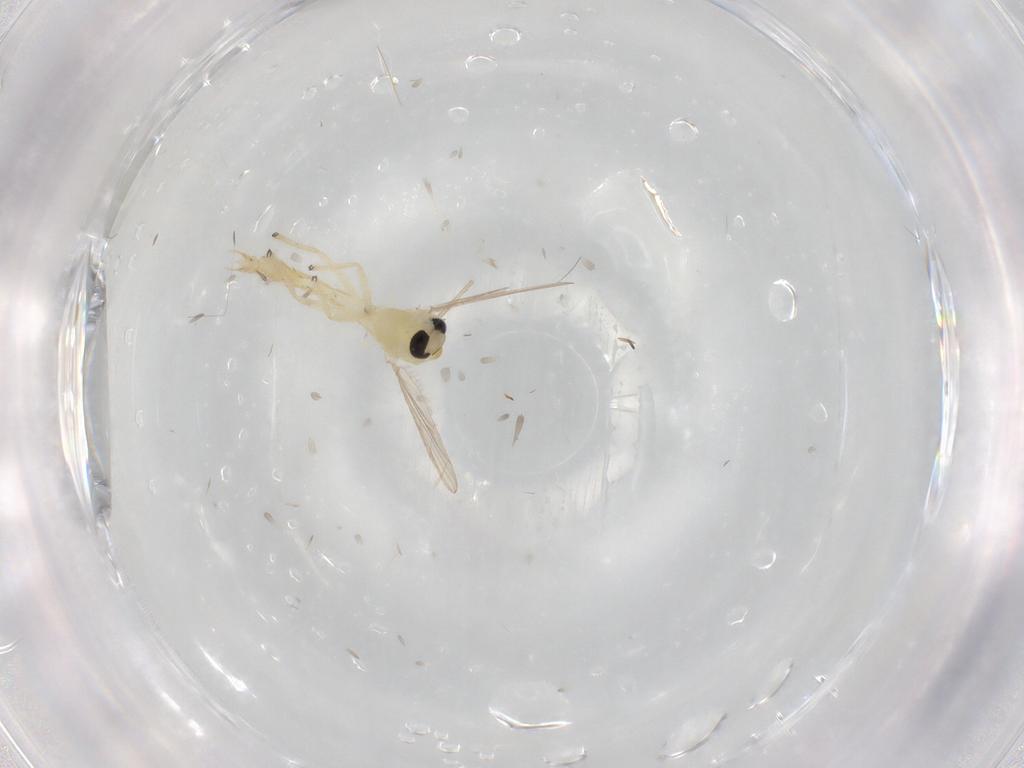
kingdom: Animalia
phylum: Arthropoda
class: Insecta
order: Diptera
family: Chironomidae
